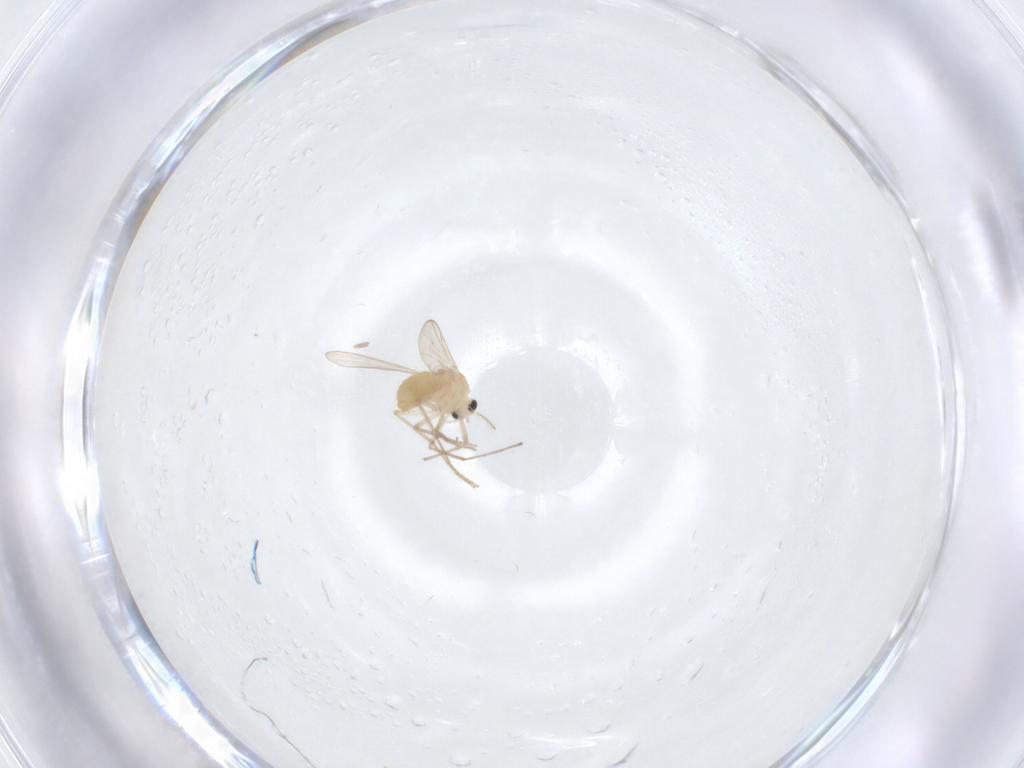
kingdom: Animalia
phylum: Arthropoda
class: Insecta
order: Diptera
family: Chironomidae
